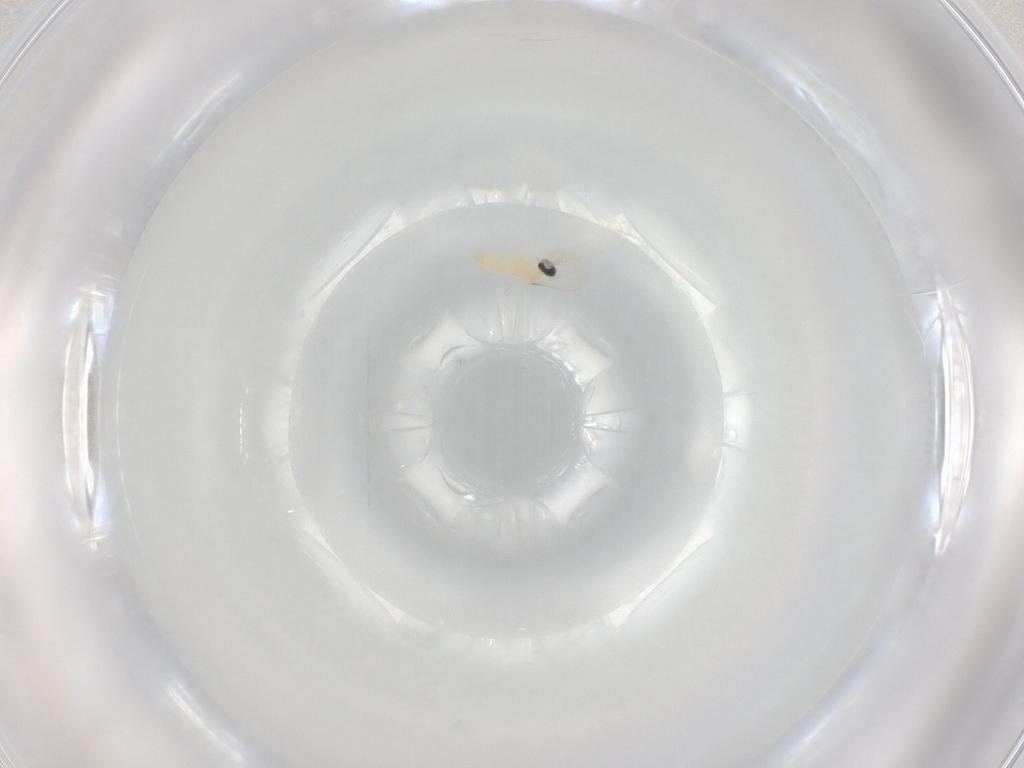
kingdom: Animalia
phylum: Arthropoda
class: Insecta
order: Diptera
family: Cecidomyiidae
